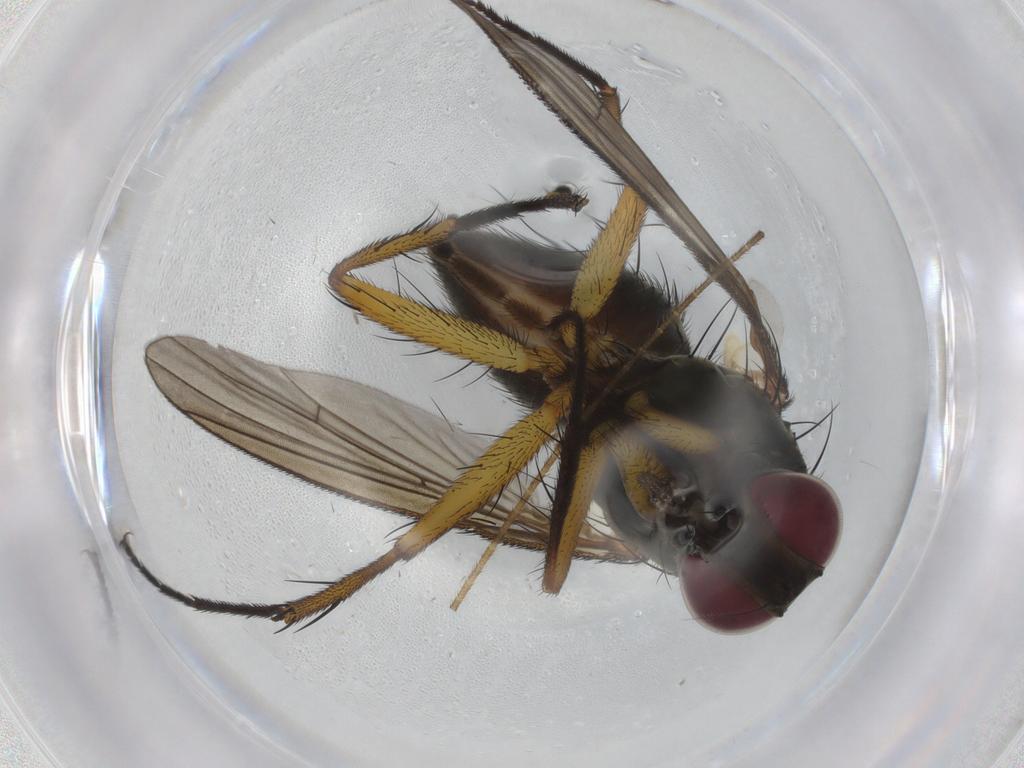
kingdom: Animalia
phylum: Arthropoda
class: Insecta
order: Diptera
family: Muscidae
